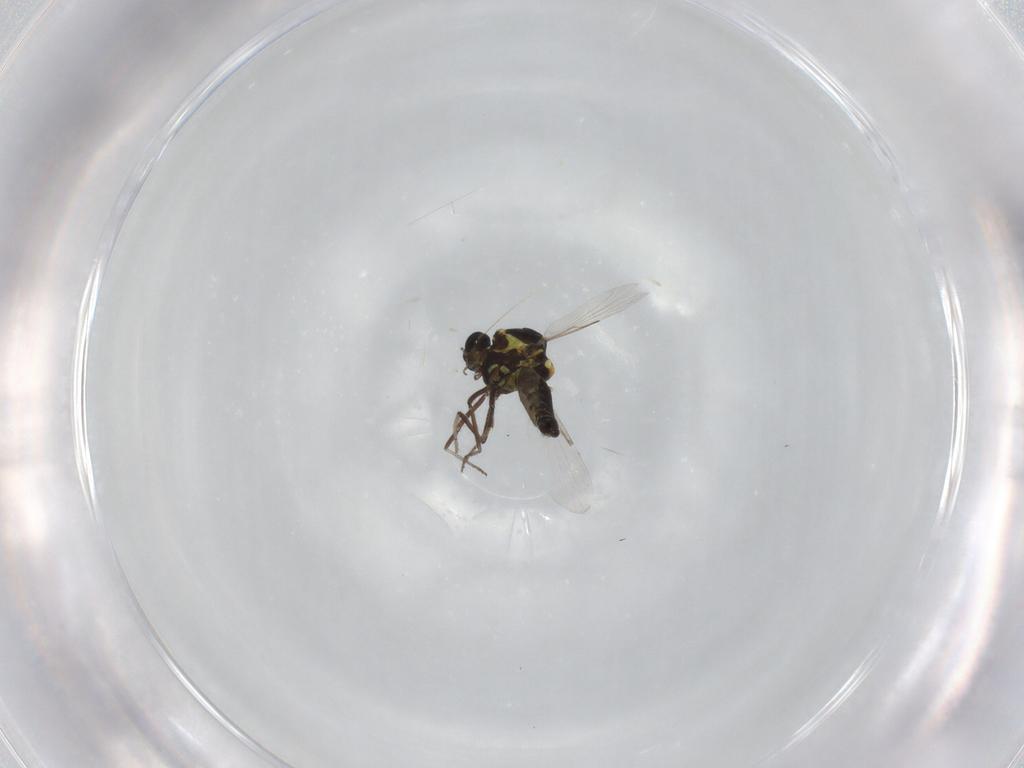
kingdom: Animalia
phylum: Arthropoda
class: Insecta
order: Diptera
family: Ceratopogonidae
